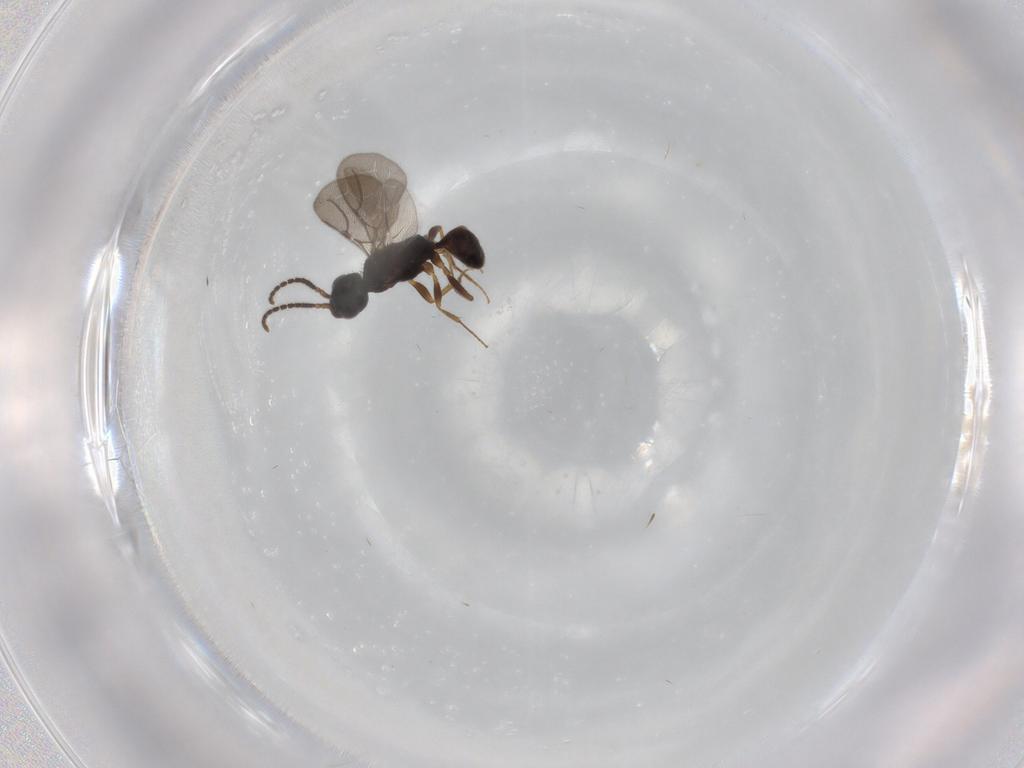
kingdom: Animalia
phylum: Arthropoda
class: Insecta
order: Hymenoptera
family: Bethylidae
